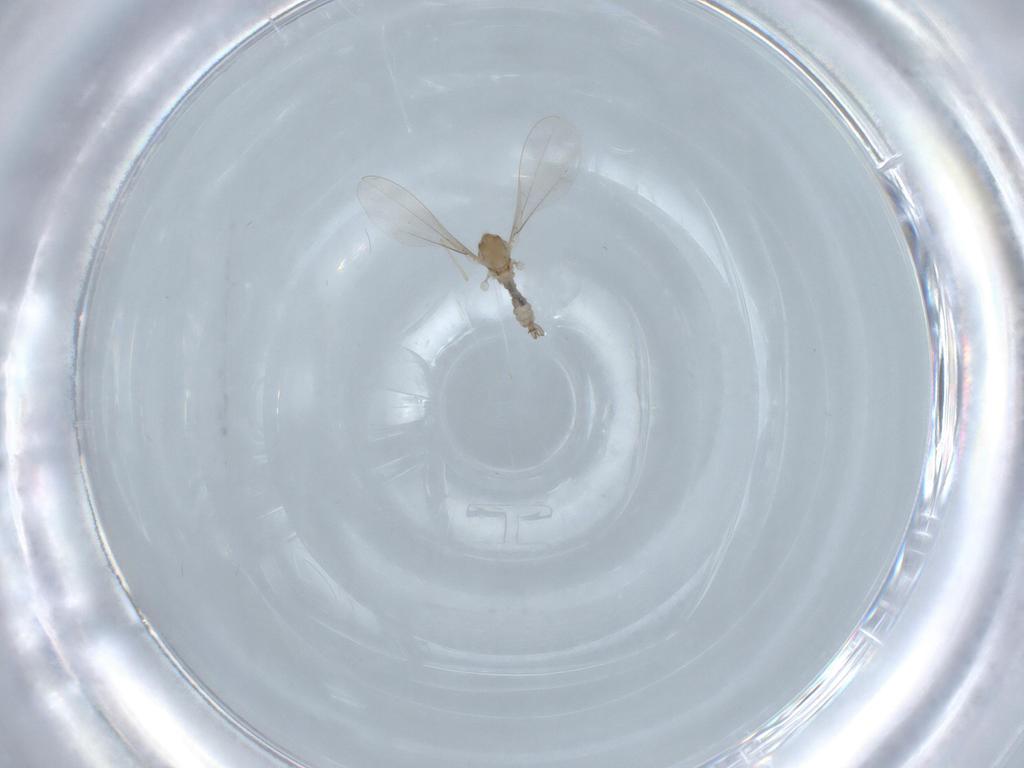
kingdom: Animalia
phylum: Arthropoda
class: Insecta
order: Diptera
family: Phoridae
